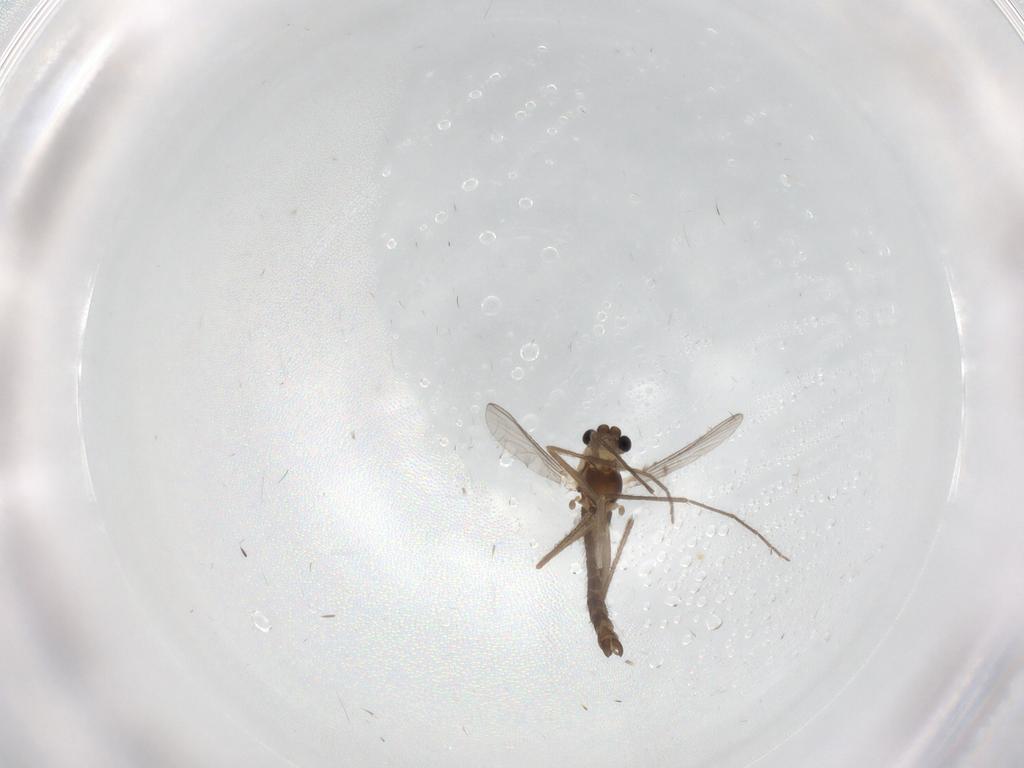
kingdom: Animalia
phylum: Arthropoda
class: Insecta
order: Diptera
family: Chironomidae
